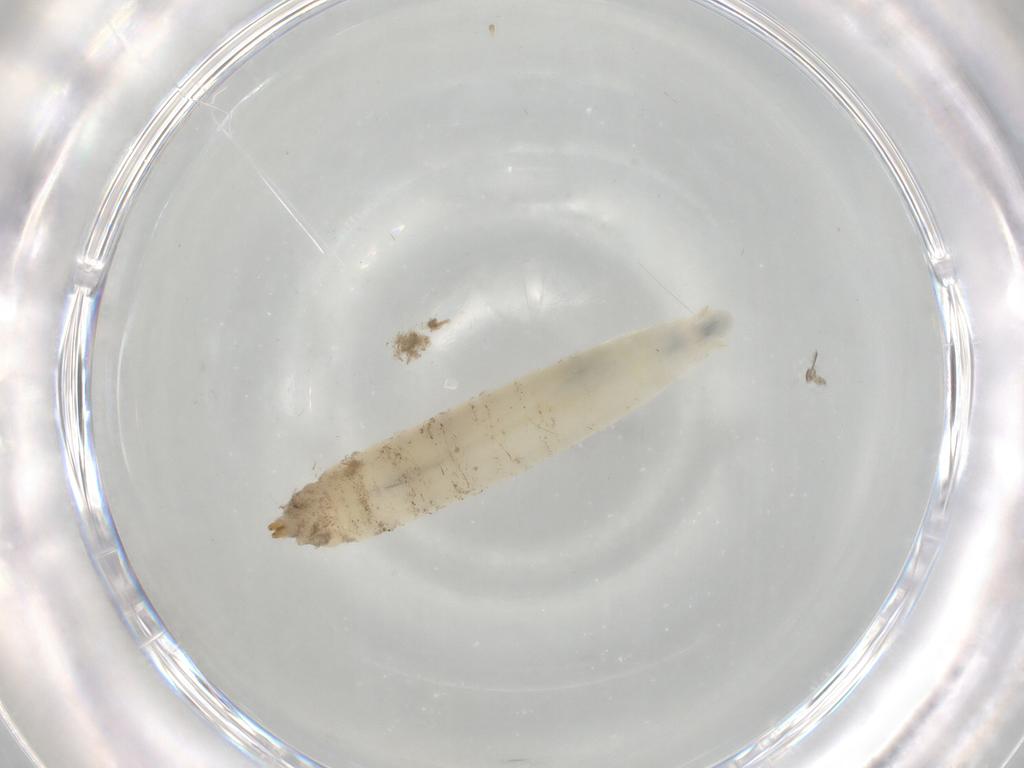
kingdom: Animalia
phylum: Arthropoda
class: Insecta
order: Diptera
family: Drosophilidae
